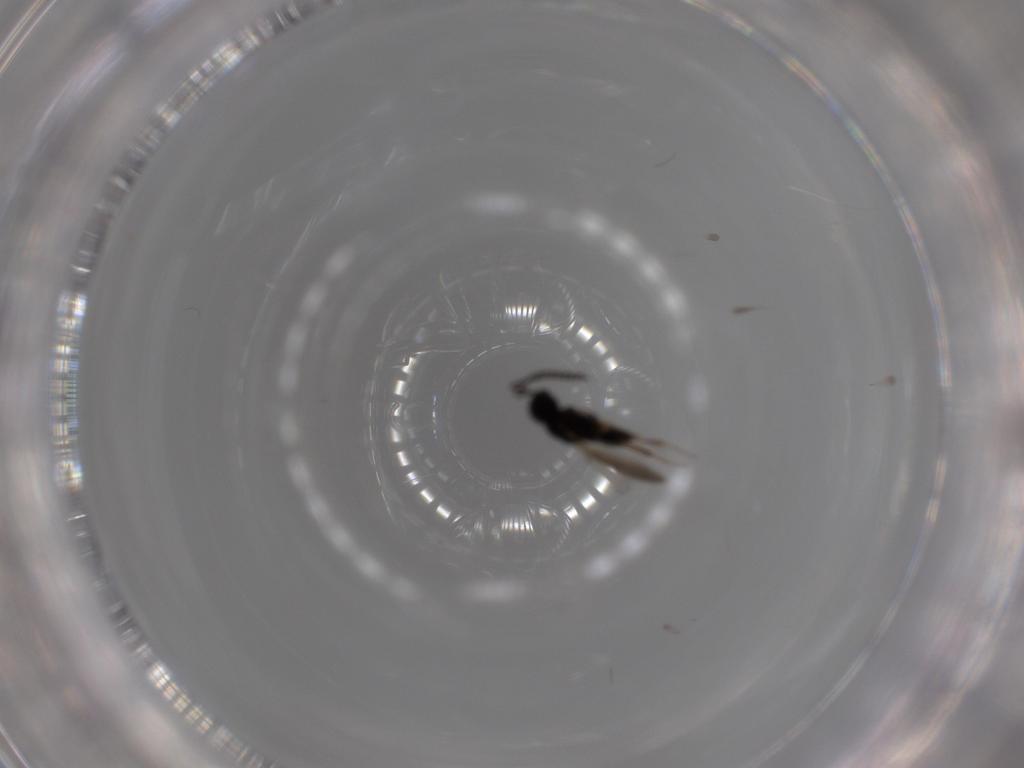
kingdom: Animalia
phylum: Arthropoda
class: Insecta
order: Hymenoptera
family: Scelionidae
